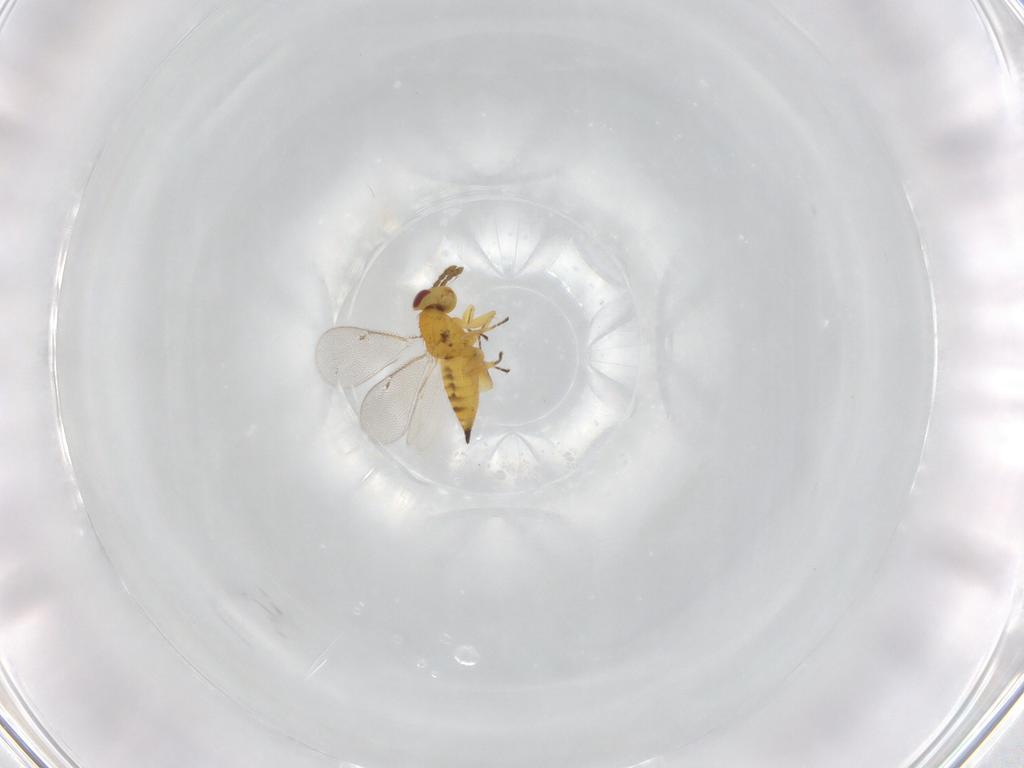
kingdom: Animalia
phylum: Arthropoda
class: Insecta
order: Hymenoptera
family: Eulophidae
